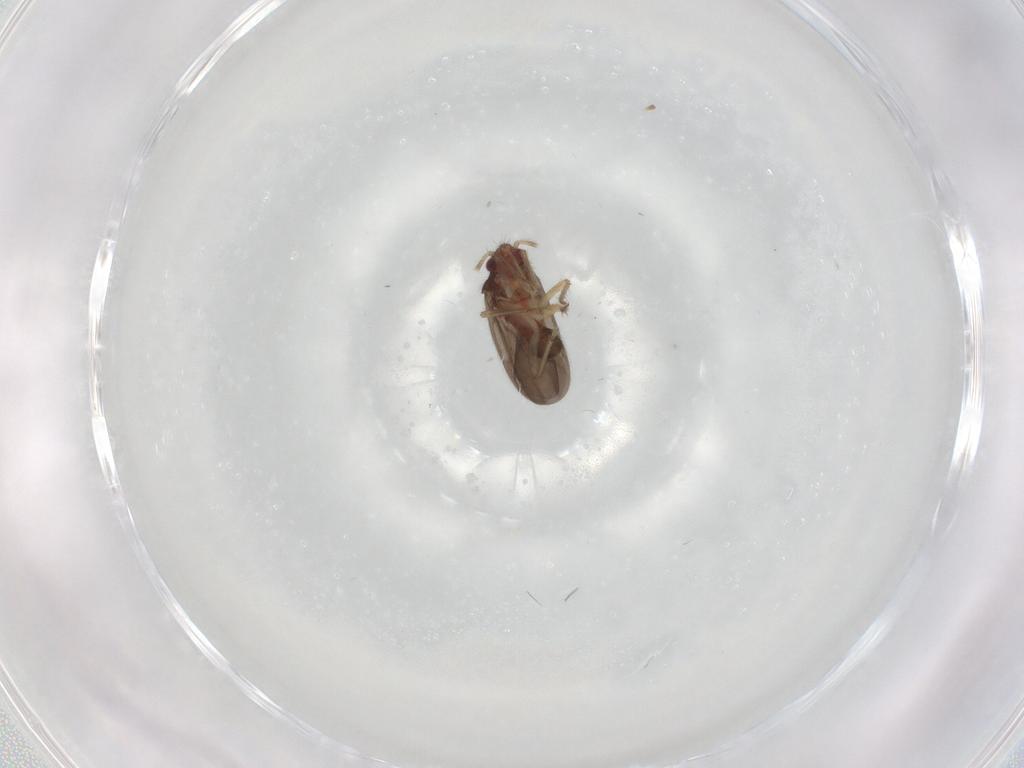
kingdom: Animalia
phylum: Arthropoda
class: Insecta
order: Hemiptera
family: Ceratocombidae
